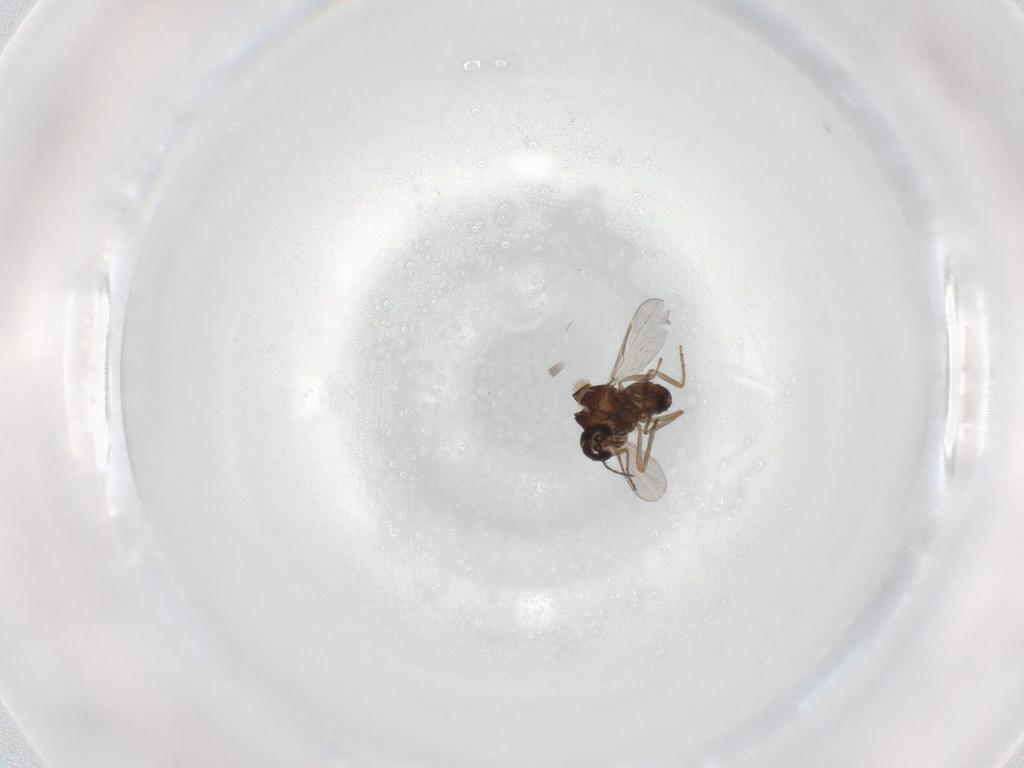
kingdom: Animalia
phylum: Arthropoda
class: Insecta
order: Diptera
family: Ceratopogonidae
